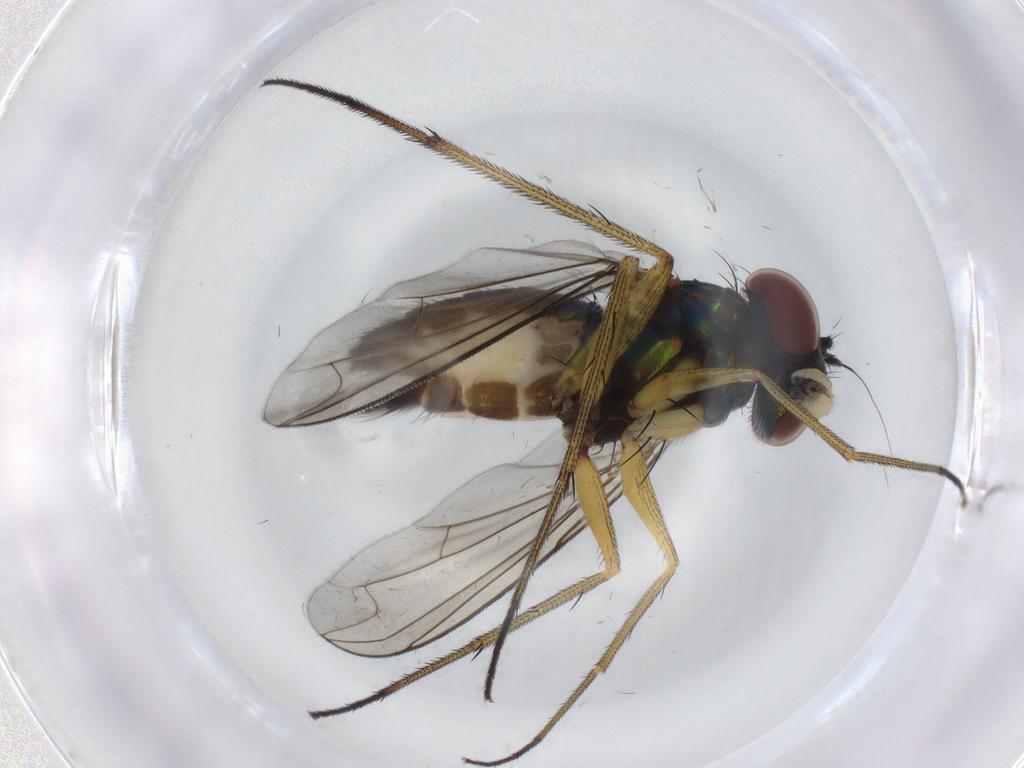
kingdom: Animalia
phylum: Arthropoda
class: Insecta
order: Diptera
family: Dolichopodidae
